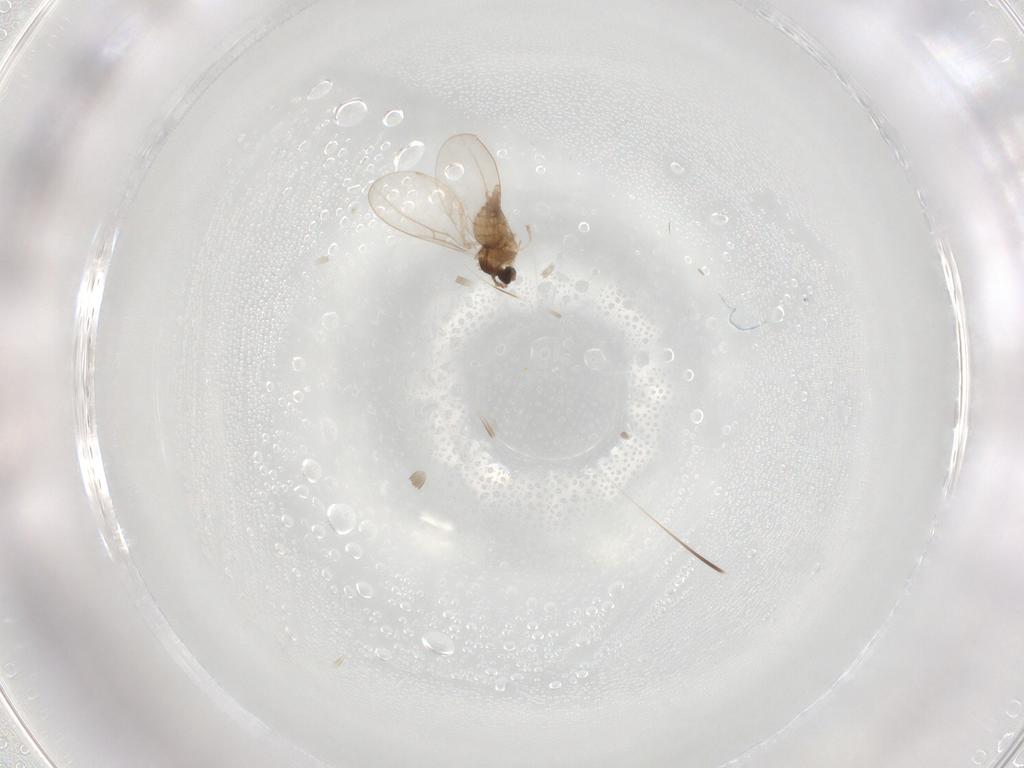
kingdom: Animalia
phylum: Arthropoda
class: Insecta
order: Diptera
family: Cecidomyiidae
